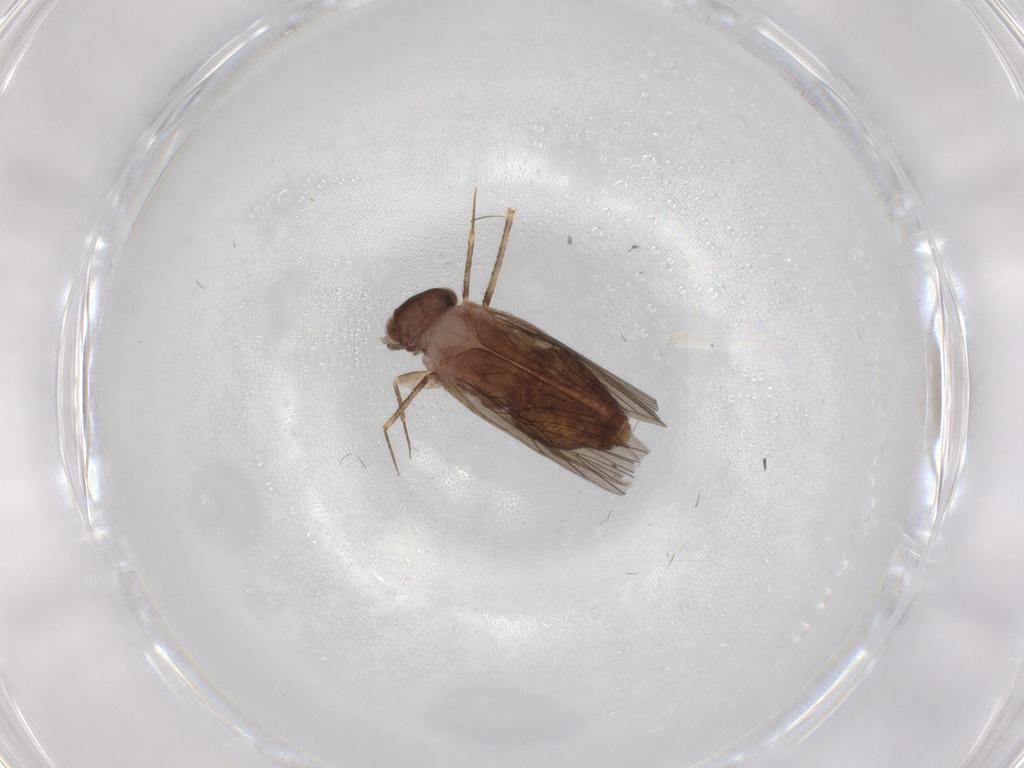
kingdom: Animalia
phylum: Arthropoda
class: Insecta
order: Psocodea
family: Lepidopsocidae
